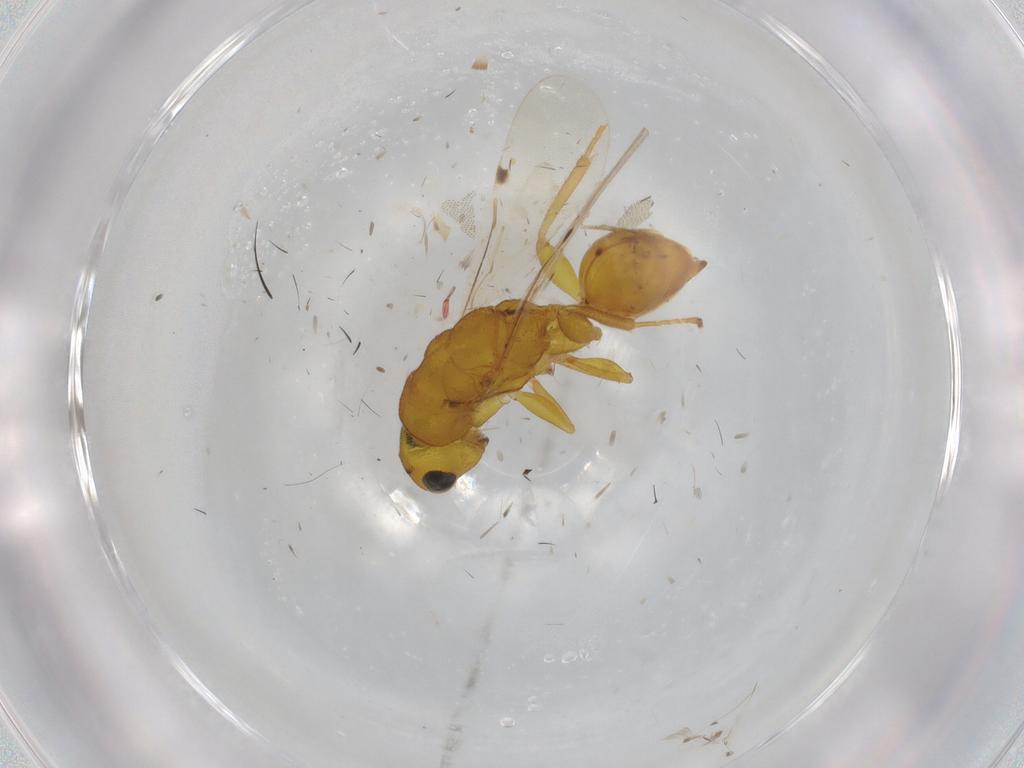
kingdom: Animalia
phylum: Arthropoda
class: Insecta
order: Hymenoptera
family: Eurytomidae
